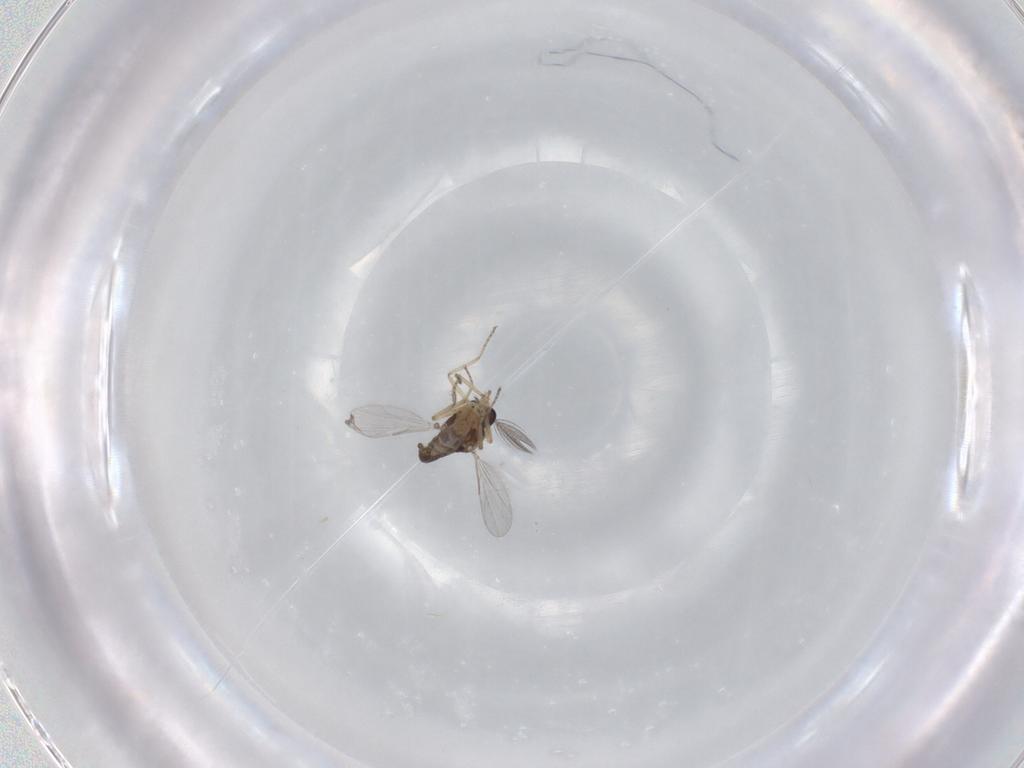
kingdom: Animalia
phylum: Arthropoda
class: Insecta
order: Diptera
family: Ceratopogonidae
